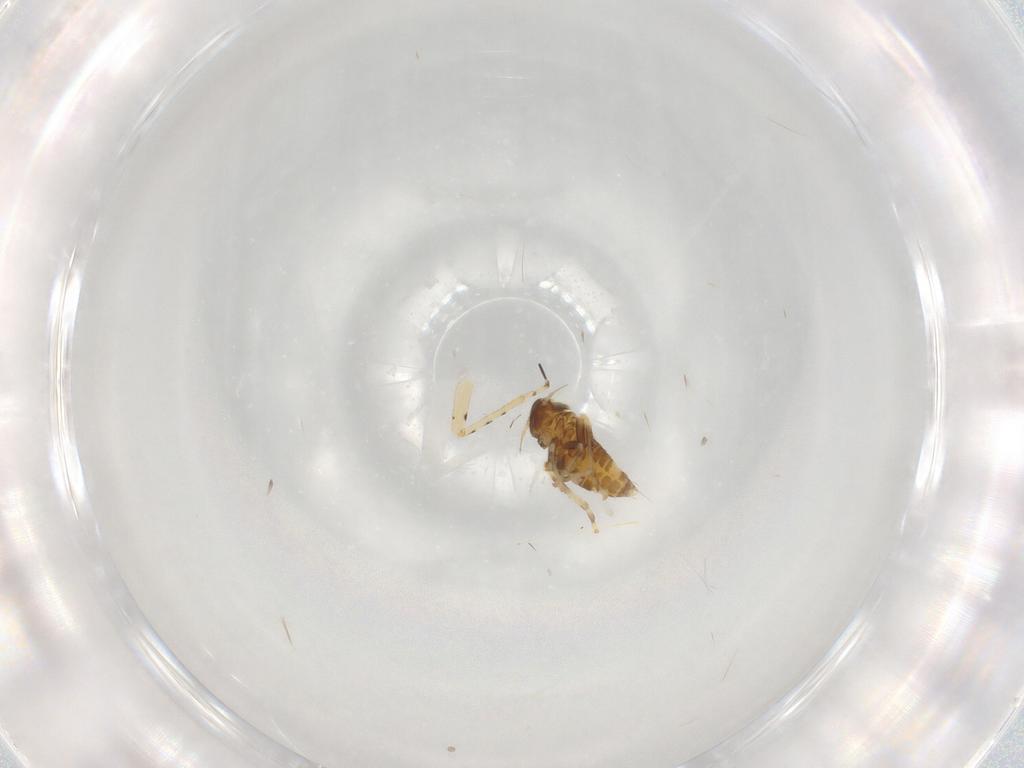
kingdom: Animalia
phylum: Arthropoda
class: Insecta
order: Hemiptera
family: Cicadellidae
